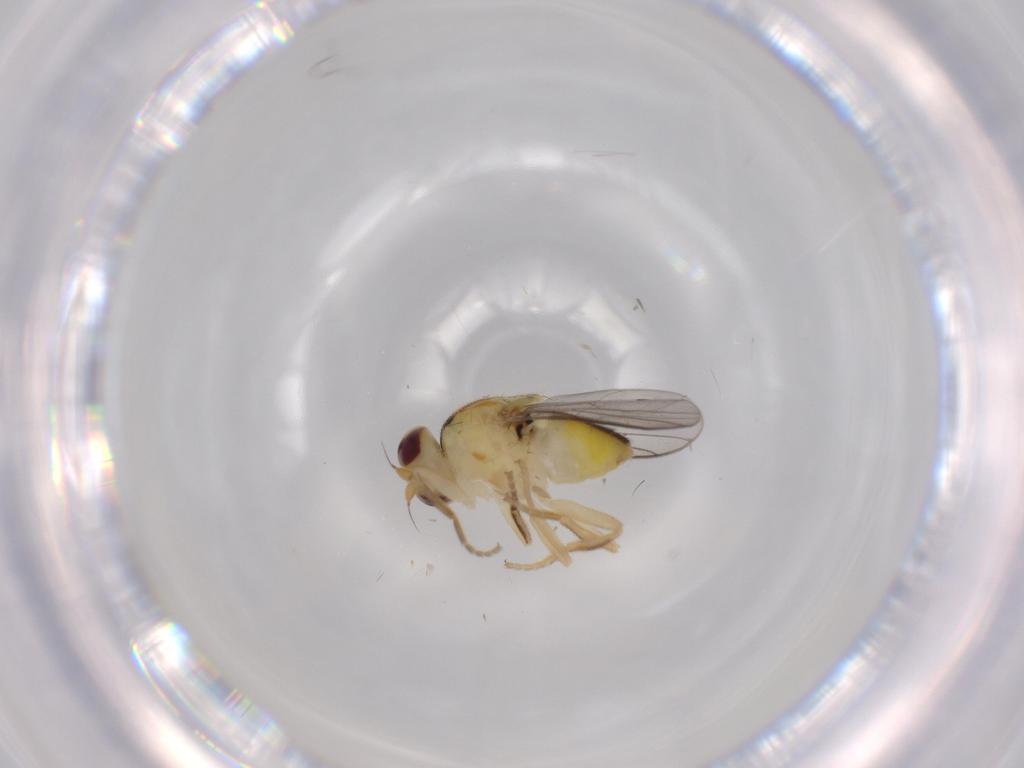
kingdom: Animalia
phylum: Arthropoda
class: Insecta
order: Diptera
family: Chloropidae
